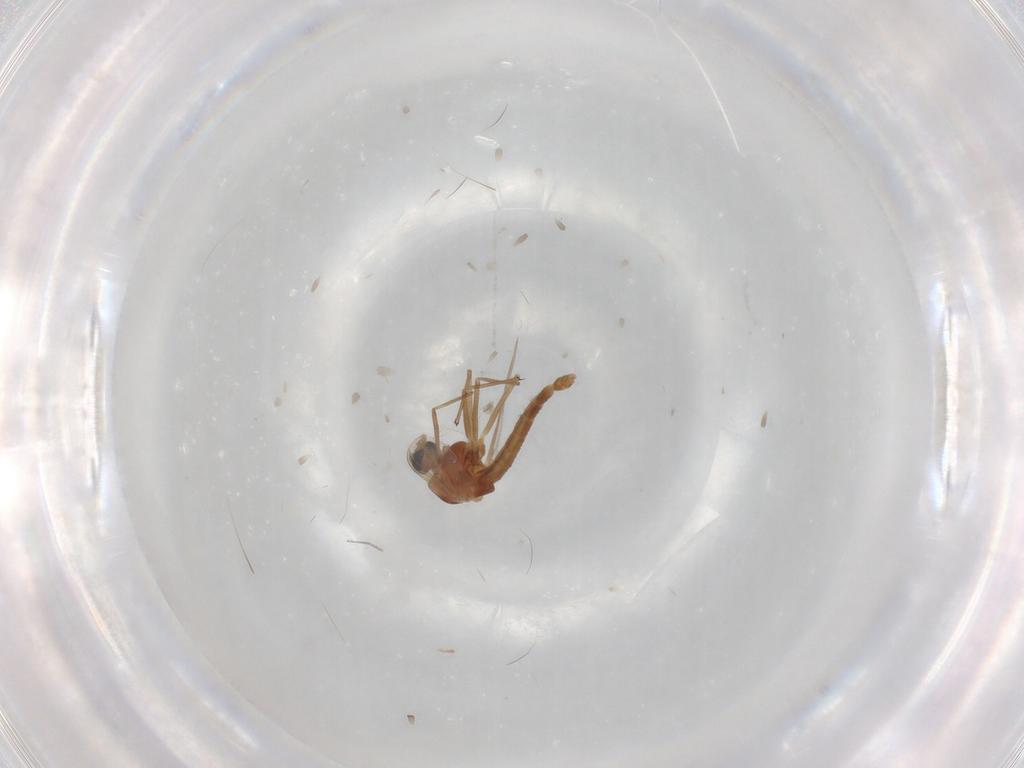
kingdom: Animalia
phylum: Arthropoda
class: Insecta
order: Diptera
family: Chironomidae
